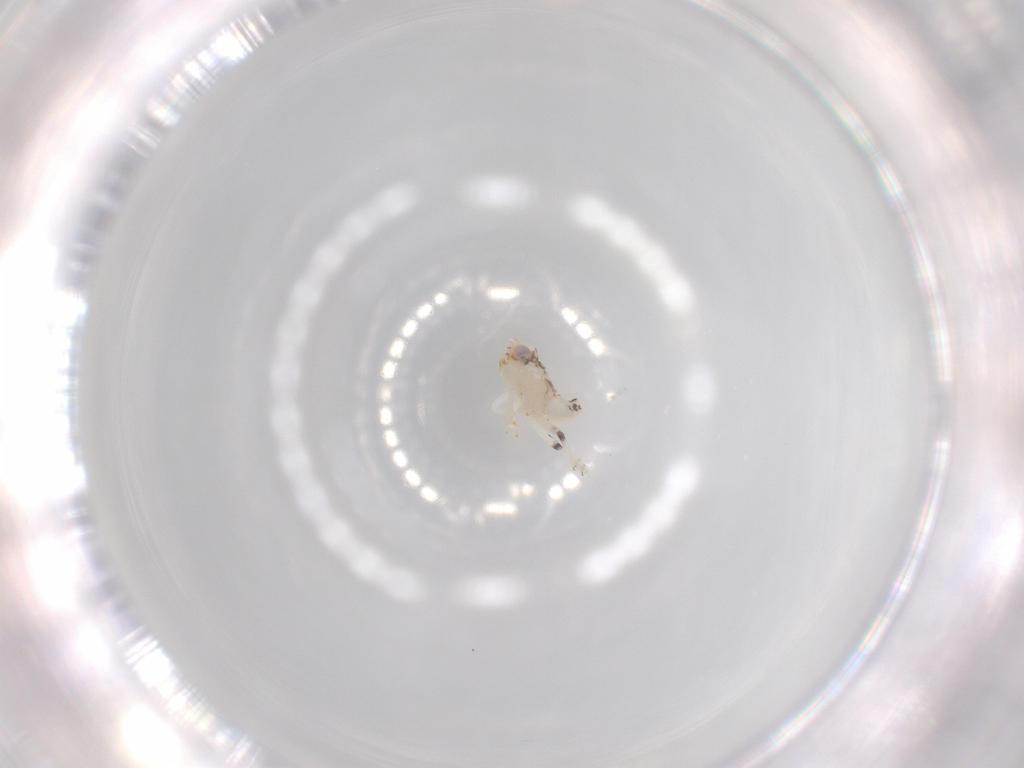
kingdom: Animalia
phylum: Arthropoda
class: Insecta
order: Hemiptera
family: Nogodinidae
